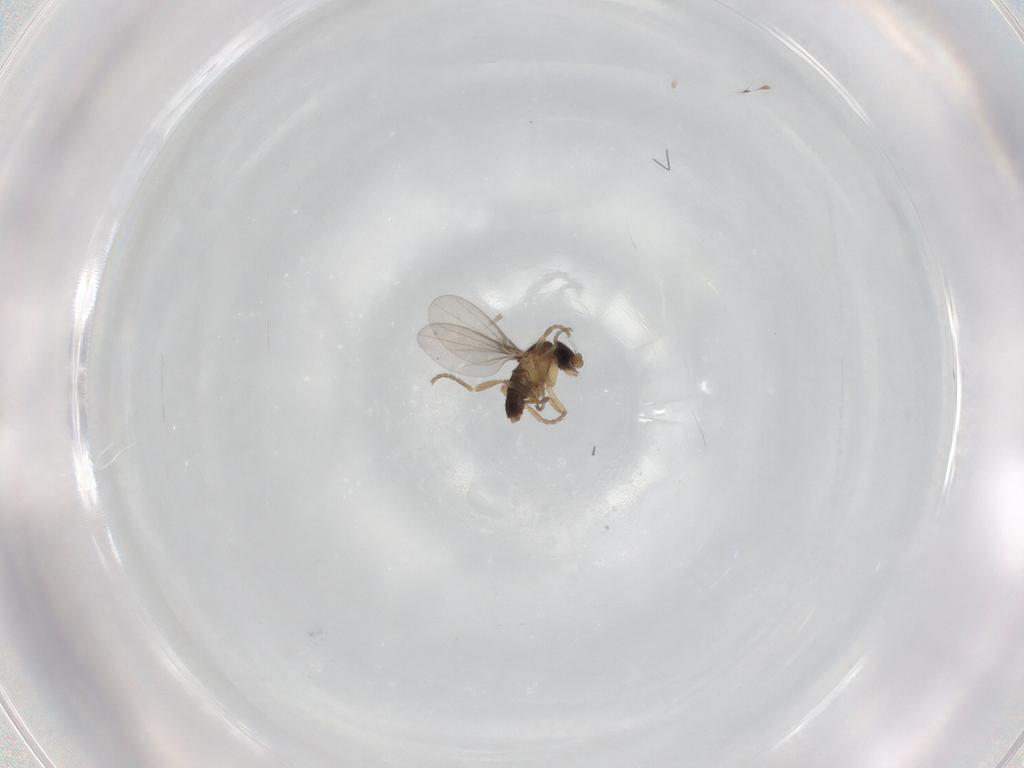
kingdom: Animalia
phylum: Arthropoda
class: Insecta
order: Diptera
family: Phoridae
